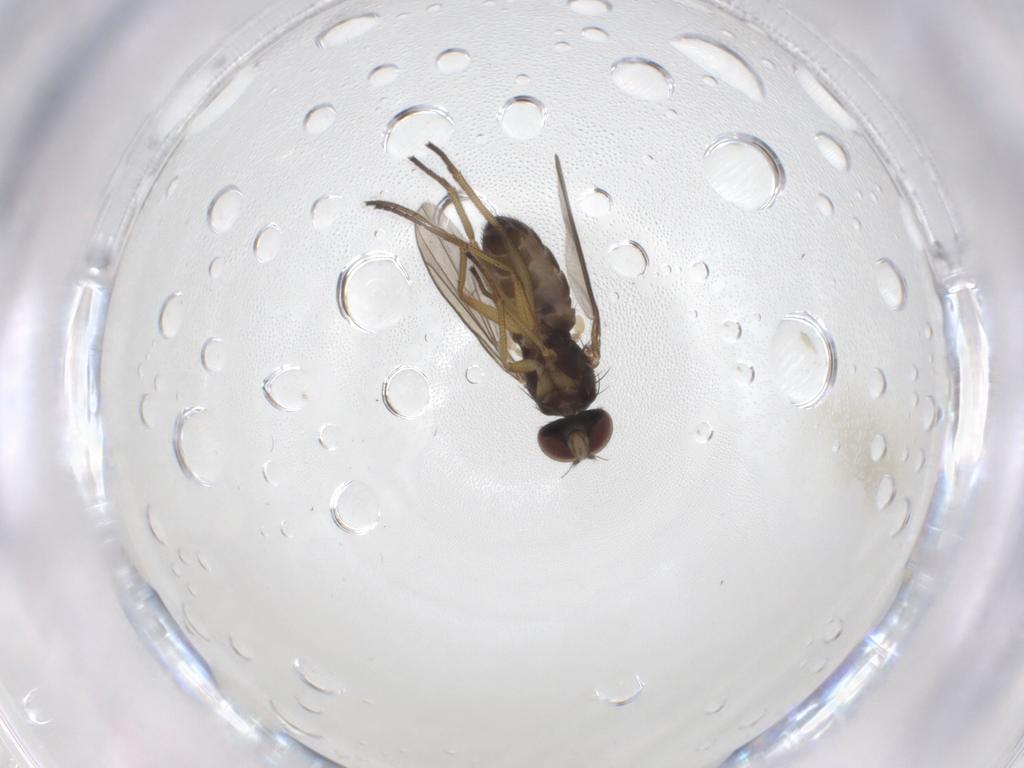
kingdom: Animalia
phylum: Arthropoda
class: Insecta
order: Diptera
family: Dolichopodidae
